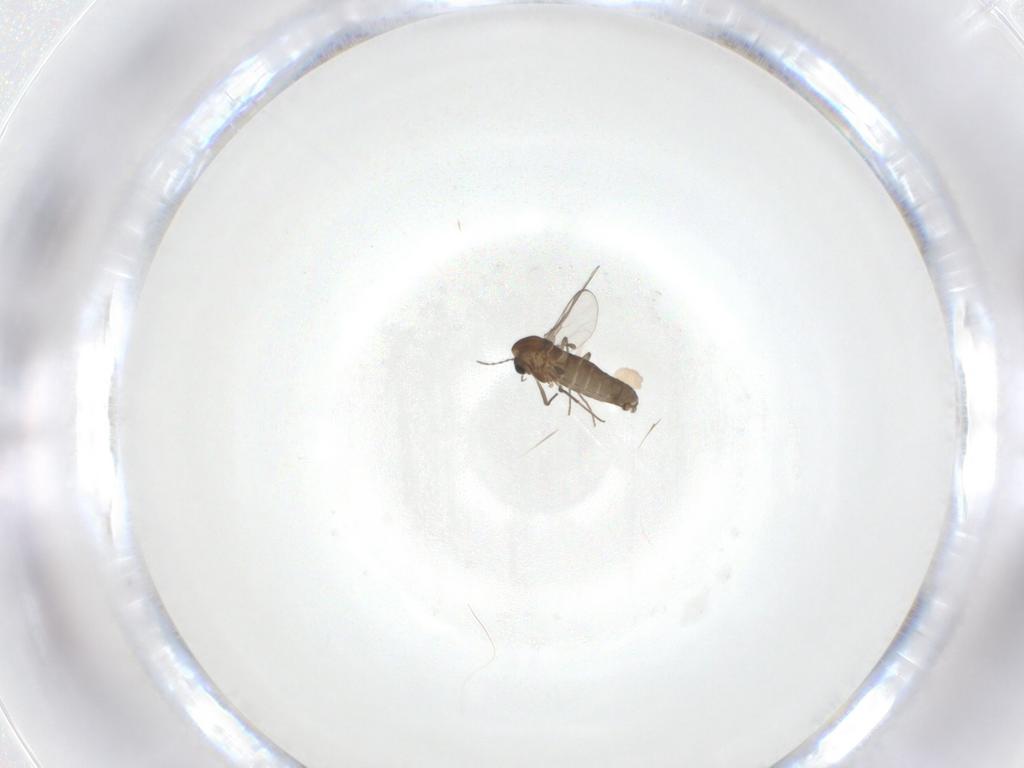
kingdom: Animalia
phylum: Arthropoda
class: Insecta
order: Diptera
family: Chironomidae
